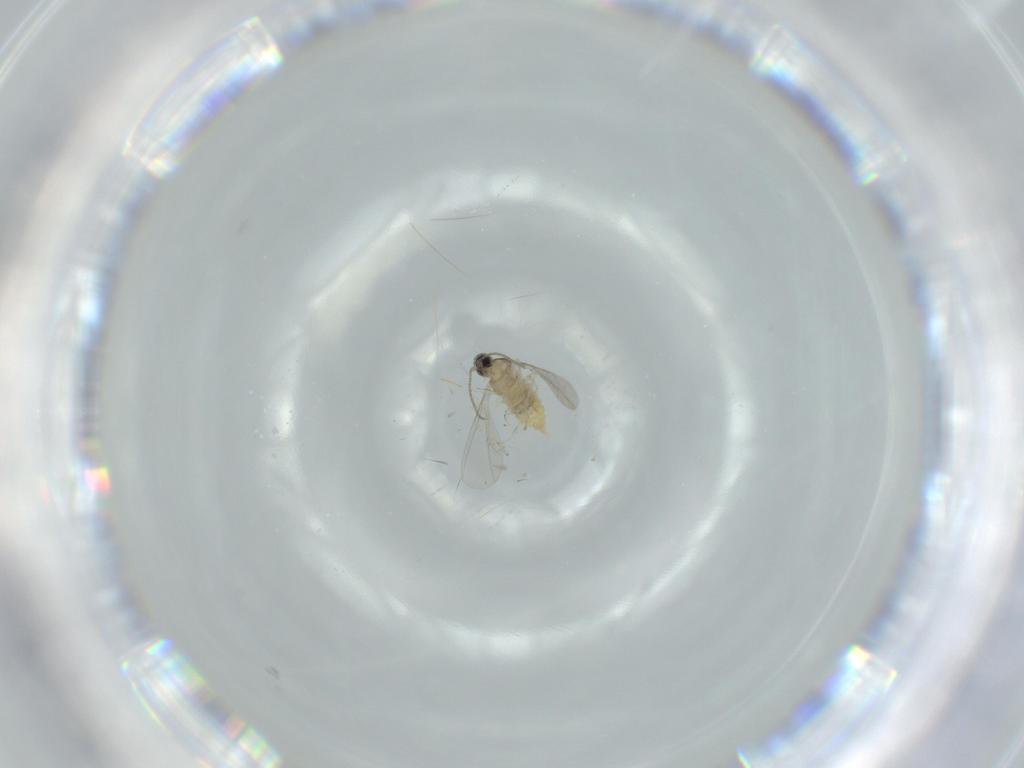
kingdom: Animalia
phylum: Arthropoda
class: Insecta
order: Diptera
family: Cecidomyiidae
